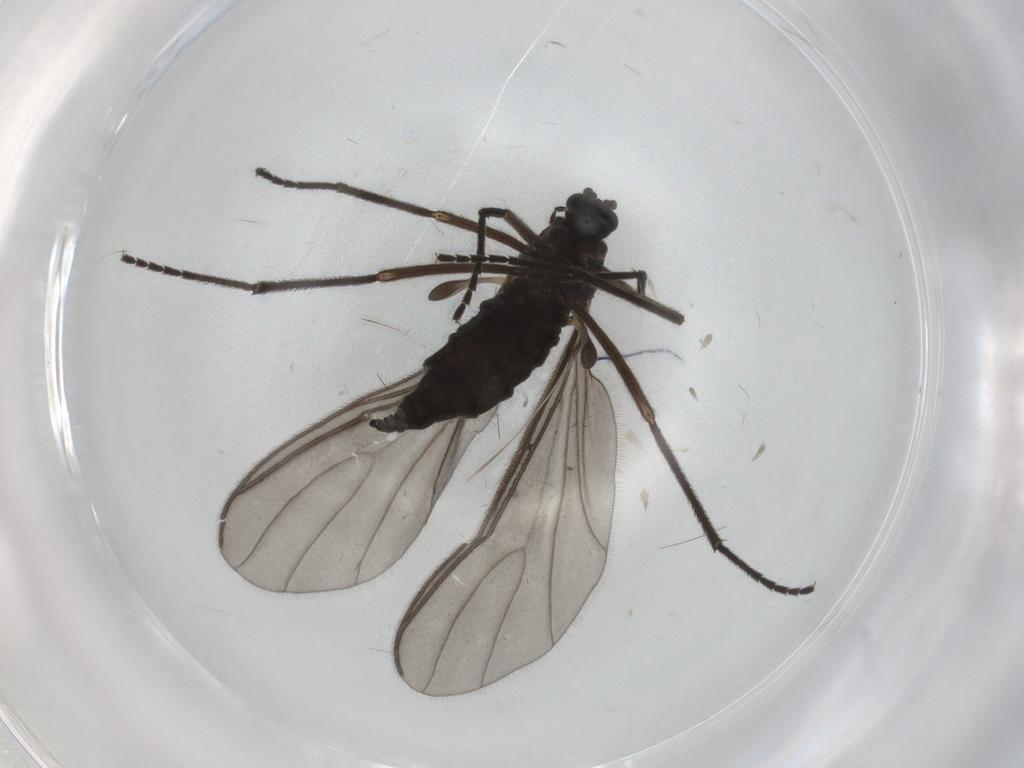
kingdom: Animalia
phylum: Arthropoda
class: Insecta
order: Diptera
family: Sciaridae
